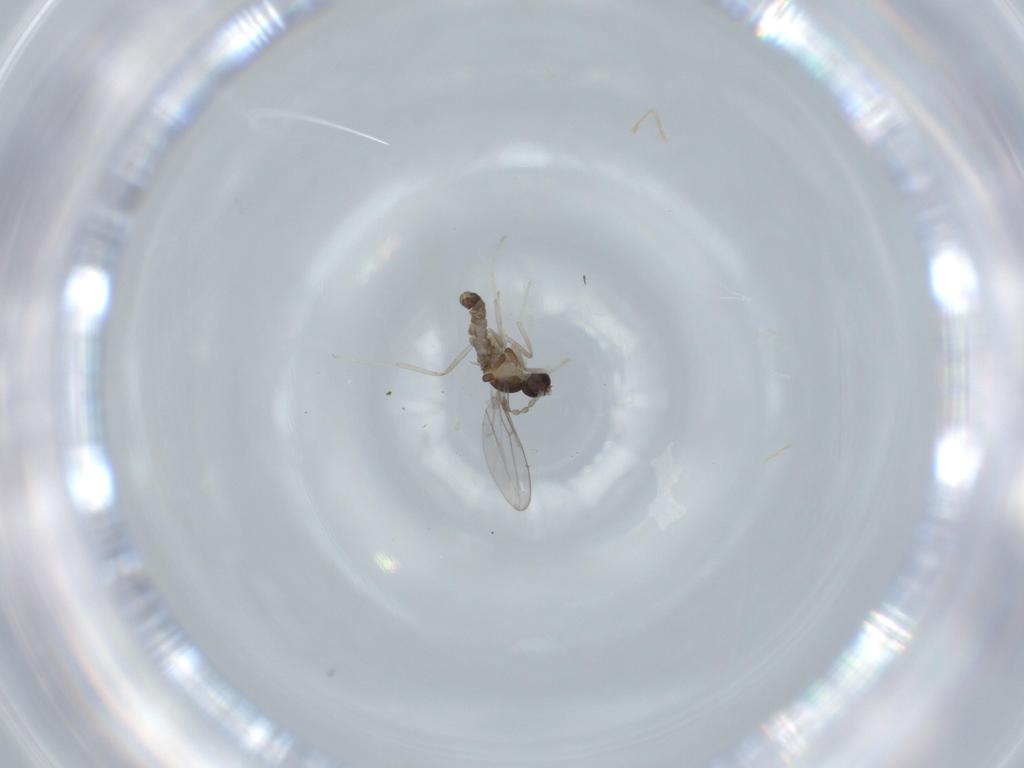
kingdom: Animalia
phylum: Arthropoda
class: Insecta
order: Diptera
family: Cecidomyiidae
